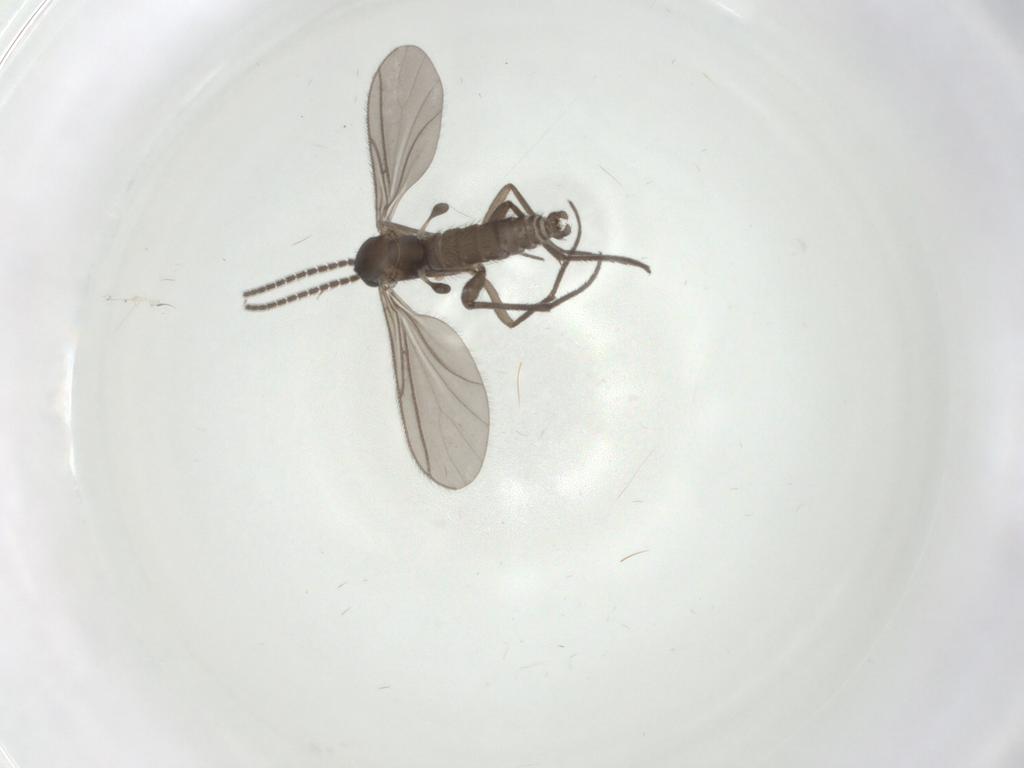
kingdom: Animalia
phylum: Arthropoda
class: Insecta
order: Diptera
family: Sciaridae
